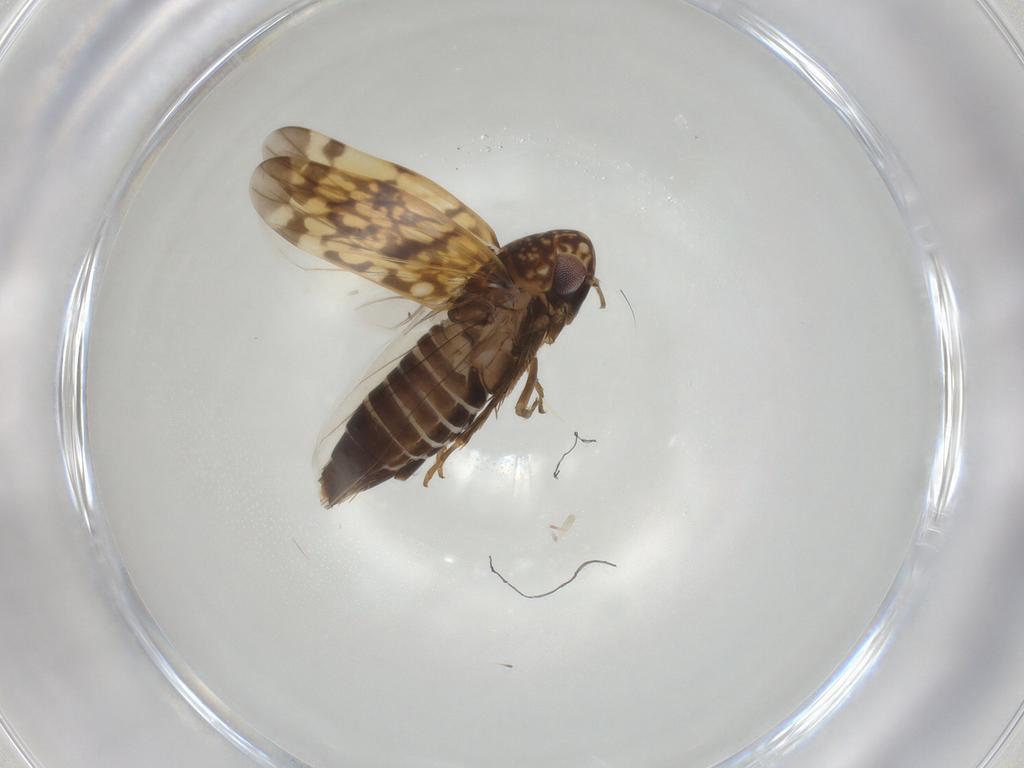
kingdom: Animalia
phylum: Arthropoda
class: Insecta
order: Hemiptera
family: Cicadellidae
